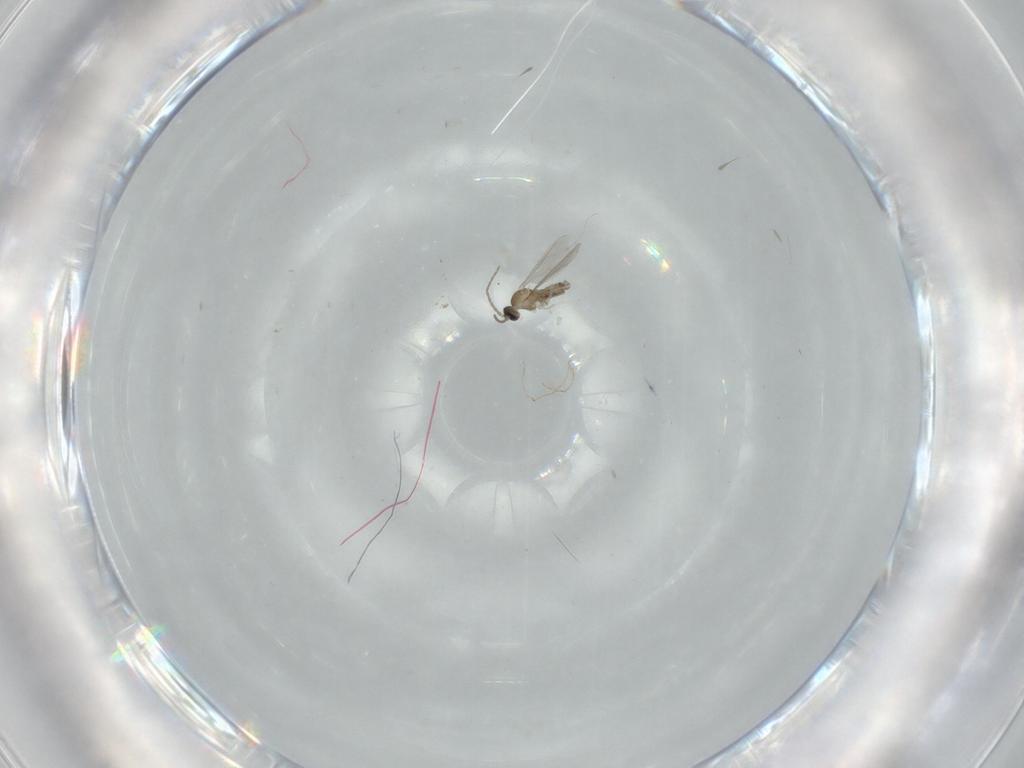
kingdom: Animalia
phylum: Arthropoda
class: Insecta
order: Diptera
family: Cecidomyiidae
